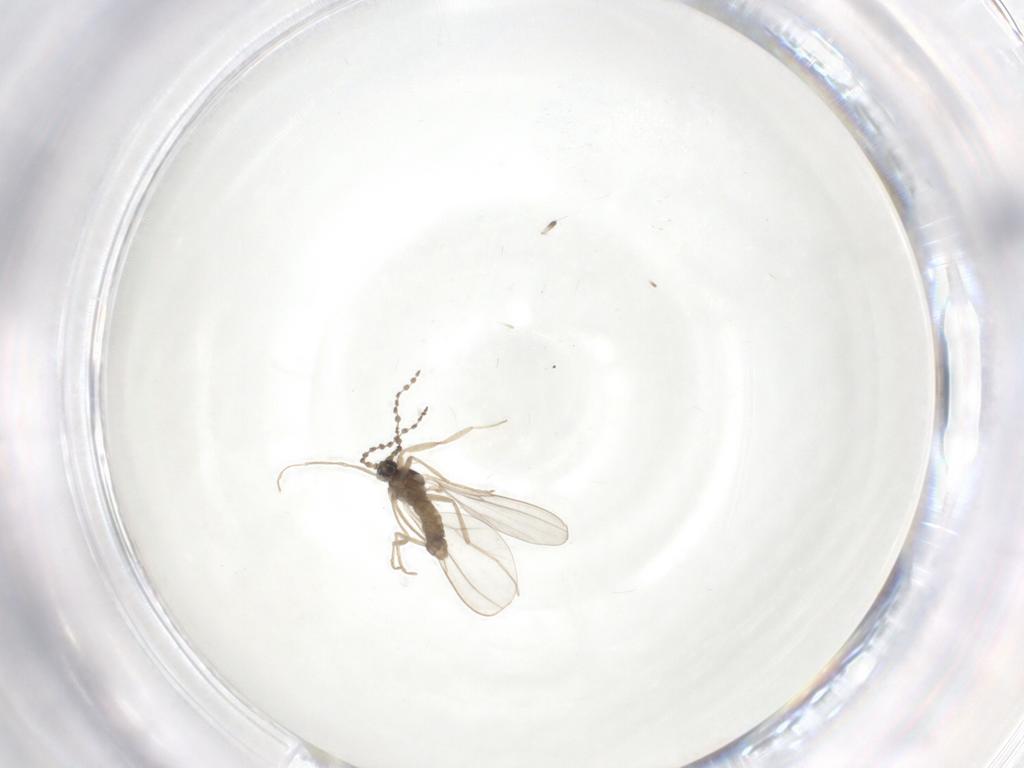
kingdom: Animalia
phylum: Arthropoda
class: Insecta
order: Diptera
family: Cecidomyiidae
